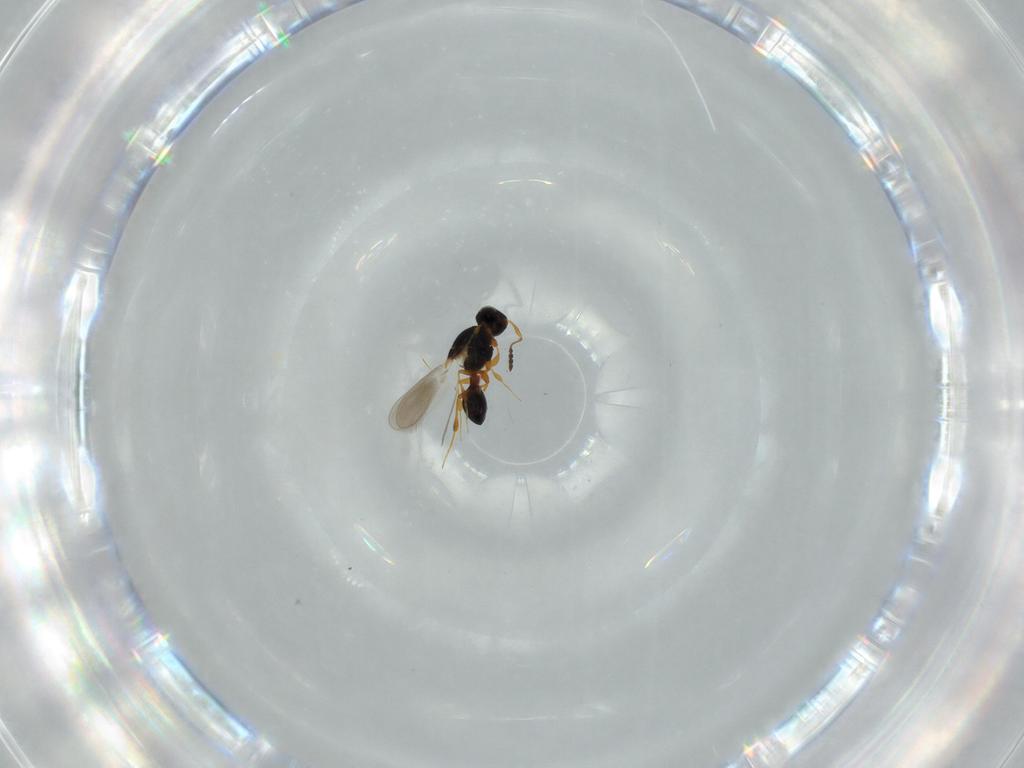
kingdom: Animalia
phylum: Arthropoda
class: Insecta
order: Hymenoptera
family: Platygastridae
